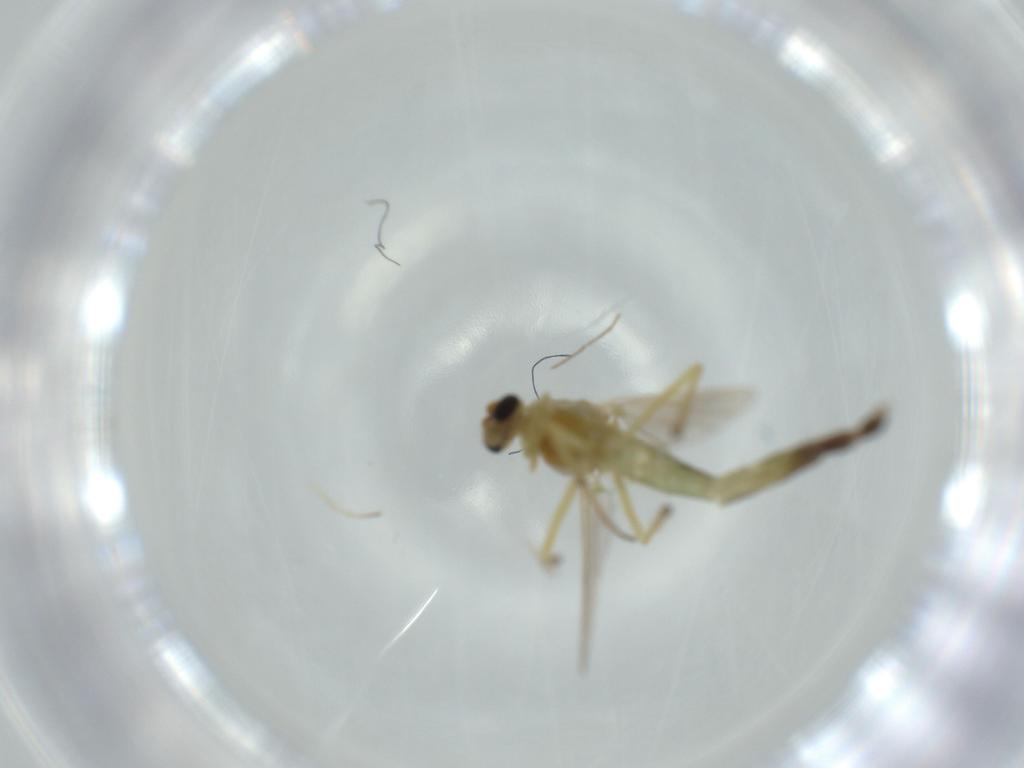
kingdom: Animalia
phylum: Arthropoda
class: Insecta
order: Diptera
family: Chironomidae
